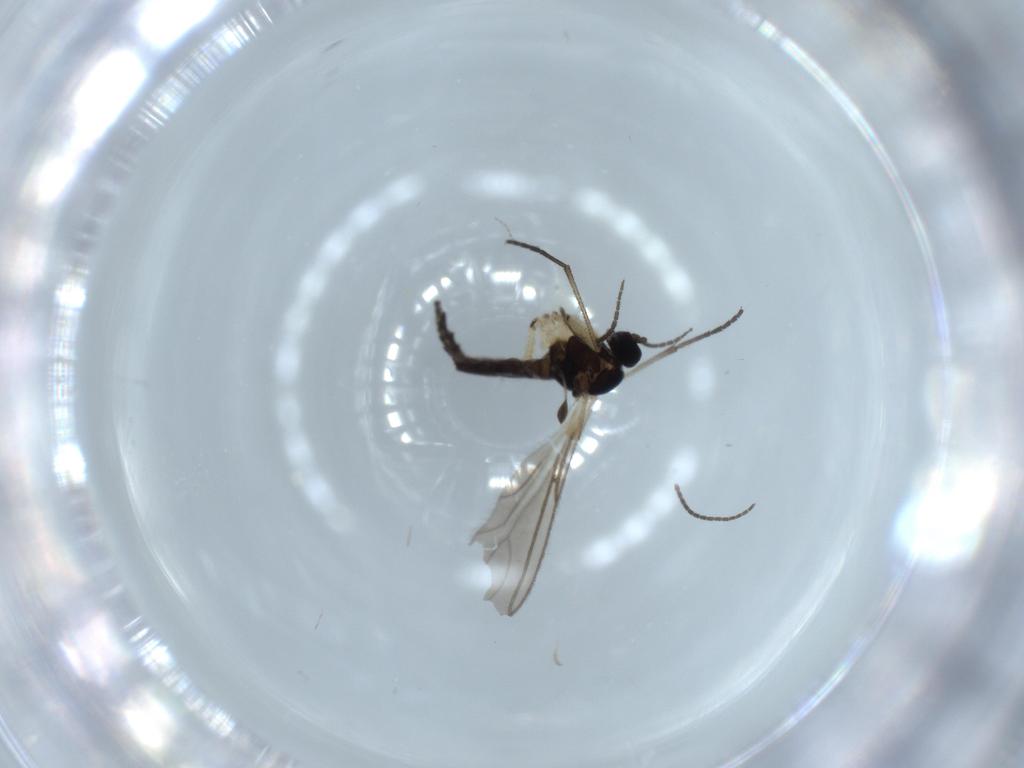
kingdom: Animalia
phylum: Arthropoda
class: Insecta
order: Diptera
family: Sciaridae
